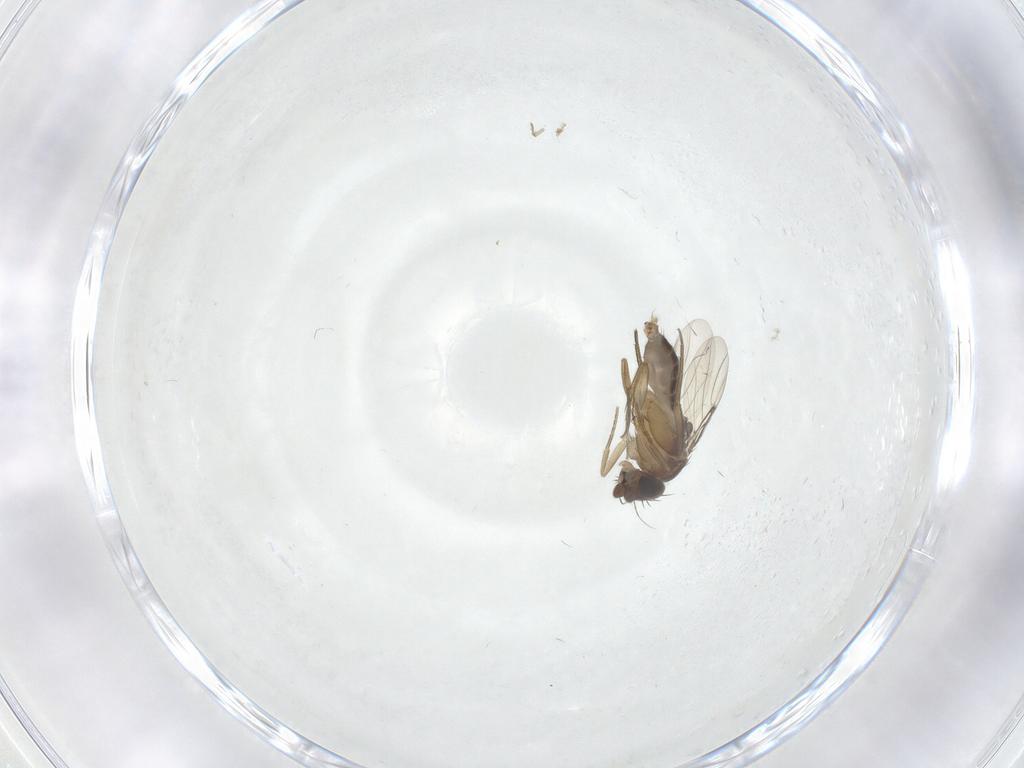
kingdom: Animalia
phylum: Arthropoda
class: Insecta
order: Diptera
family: Phoridae
